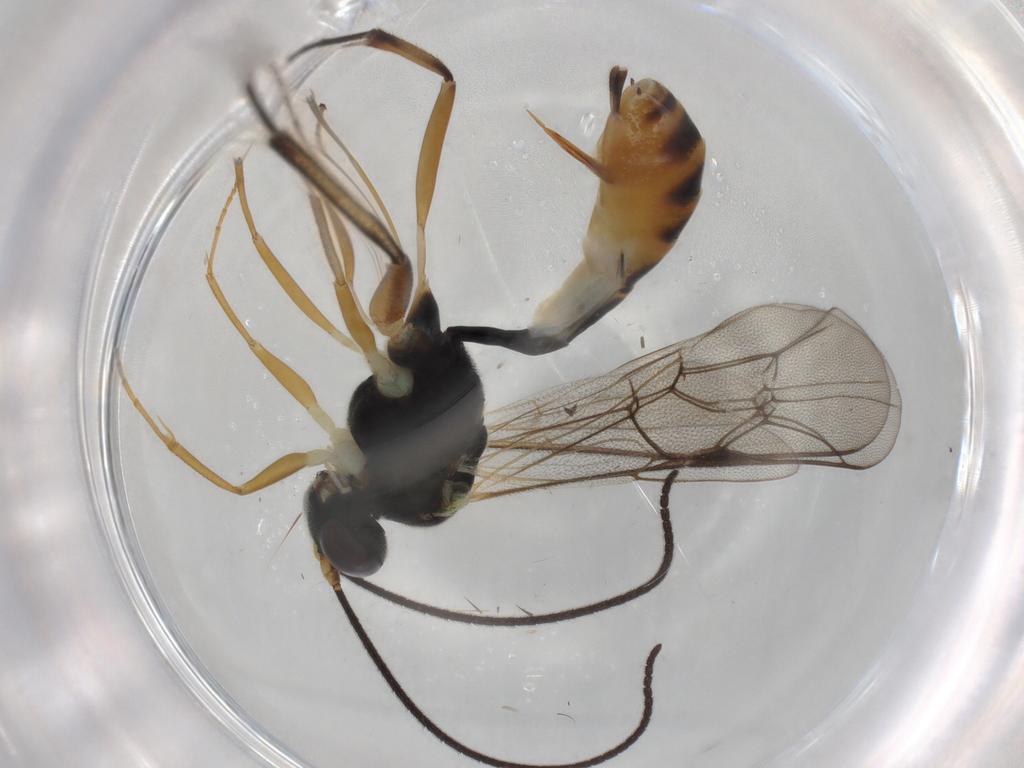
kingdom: Animalia
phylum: Arthropoda
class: Insecta
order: Hymenoptera
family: Ichneumonidae
